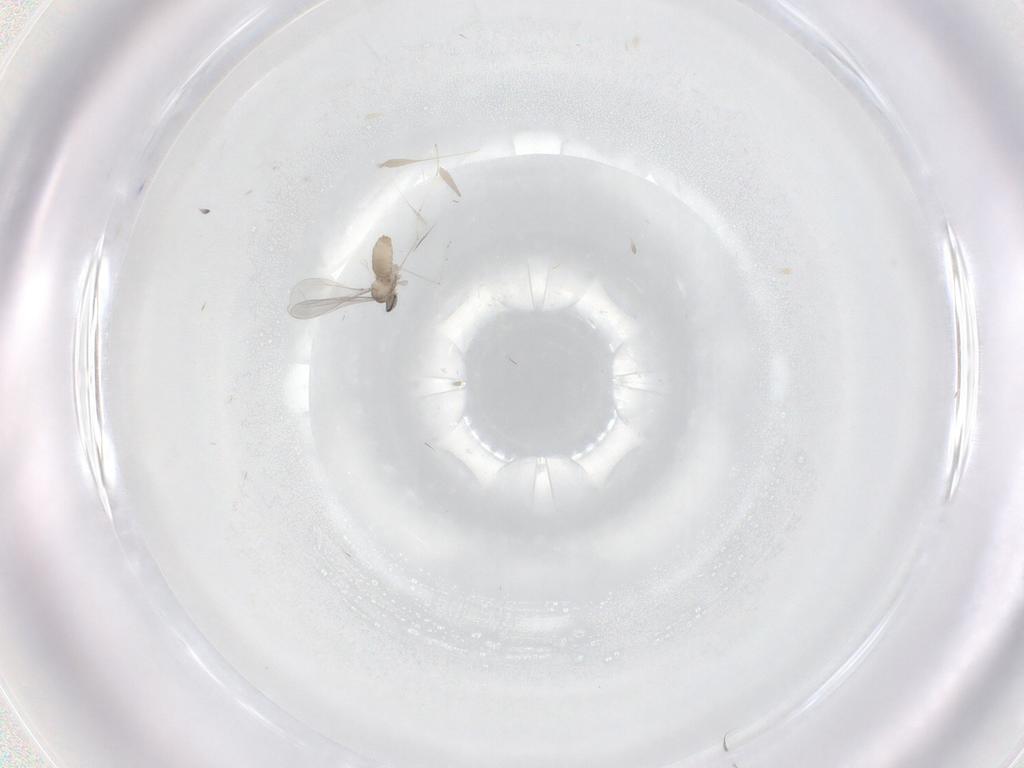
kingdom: Animalia
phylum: Arthropoda
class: Insecta
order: Diptera
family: Cecidomyiidae
